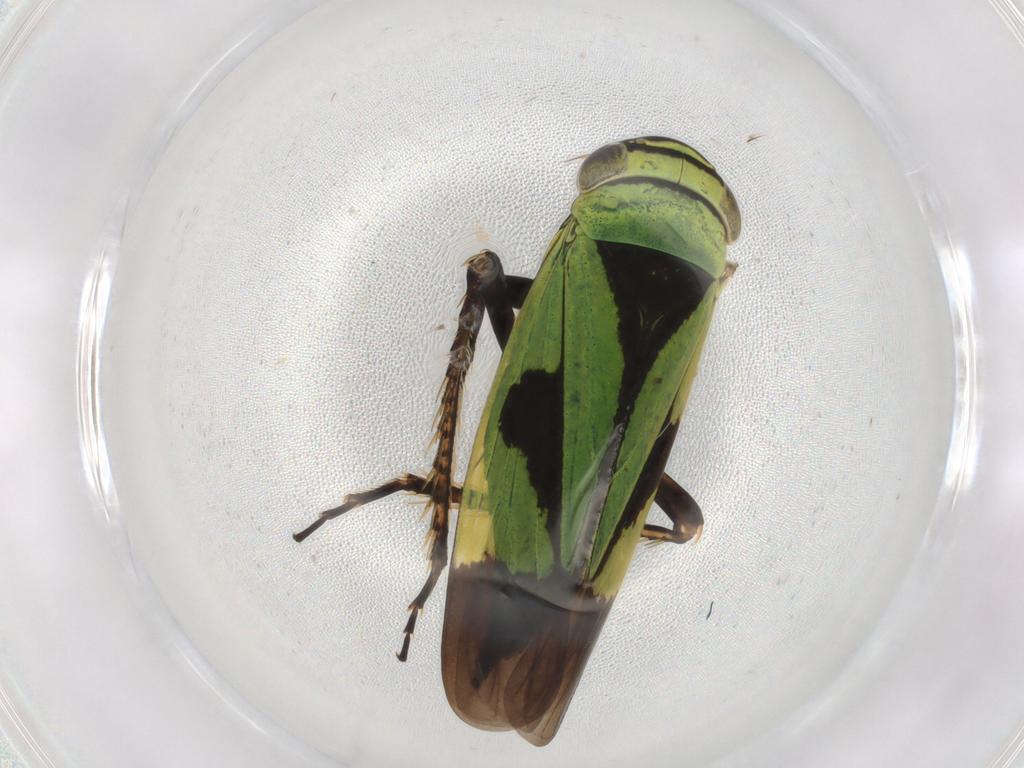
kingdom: Animalia
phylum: Arthropoda
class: Insecta
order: Hemiptera
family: Cicadellidae
